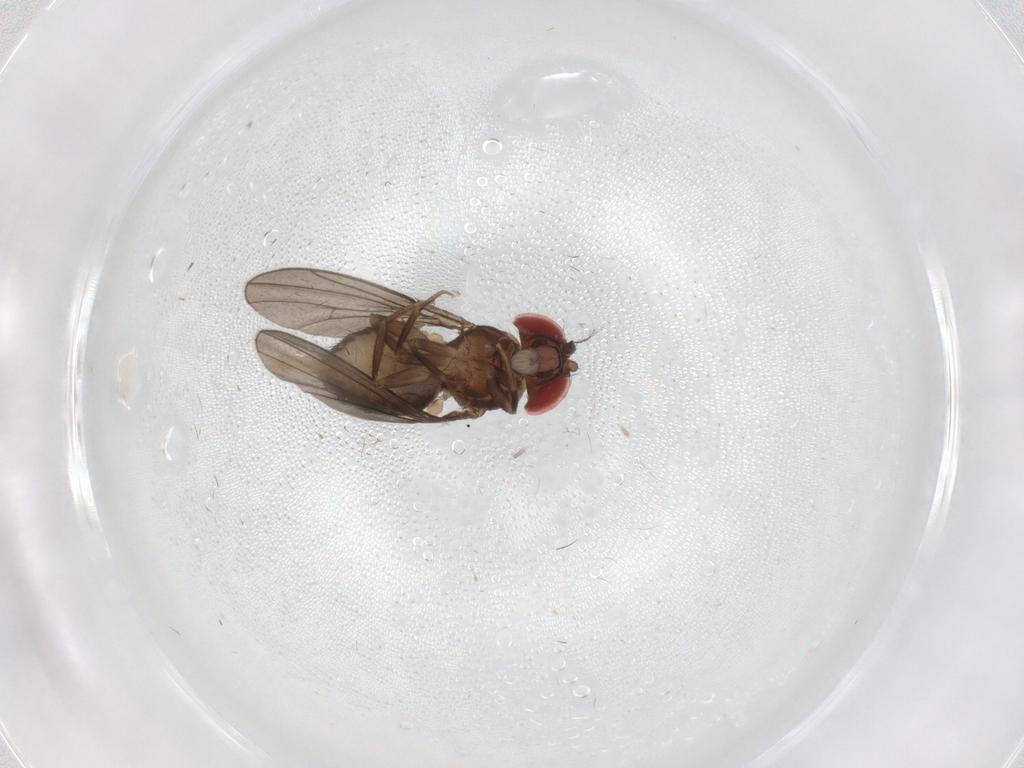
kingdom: Animalia
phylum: Arthropoda
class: Insecta
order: Diptera
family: Drosophilidae
